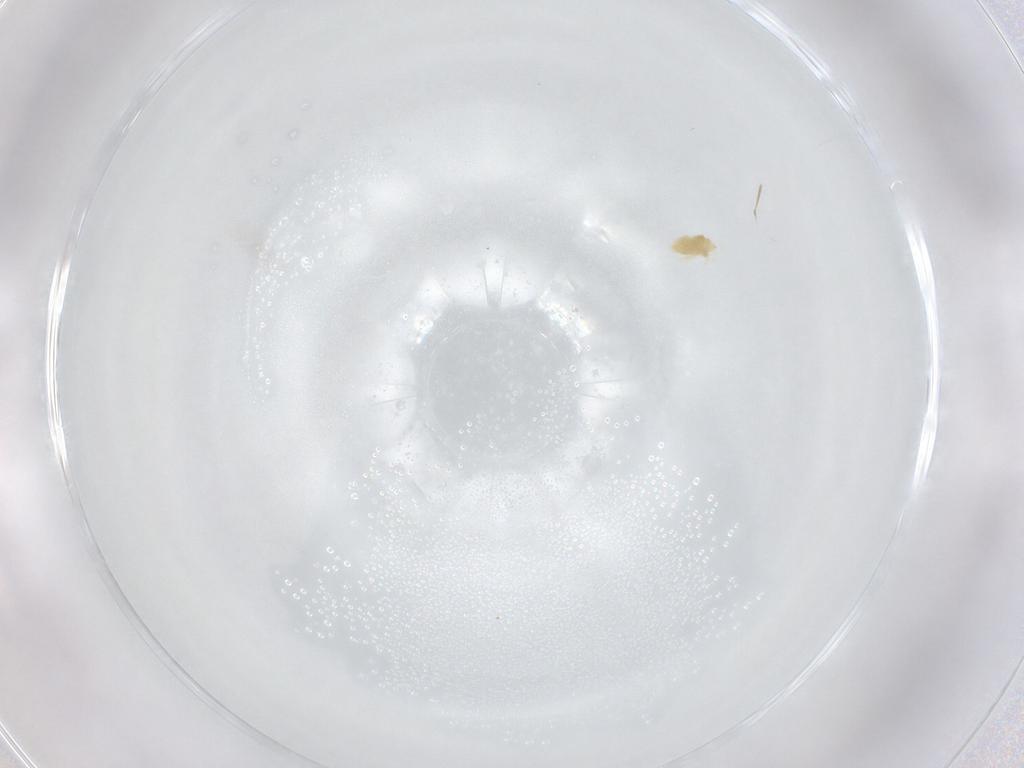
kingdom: Animalia
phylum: Arthropoda
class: Arachnida
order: Trombidiformes
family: Eupodidae
